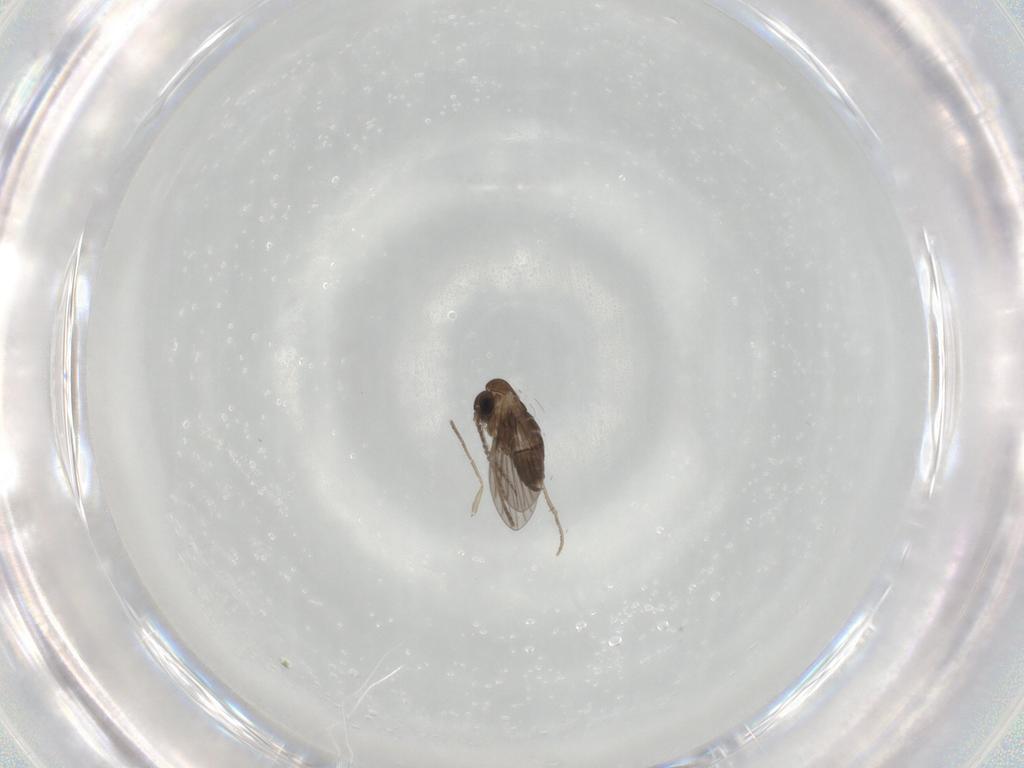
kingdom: Animalia
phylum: Arthropoda
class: Insecta
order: Diptera
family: Psychodidae
